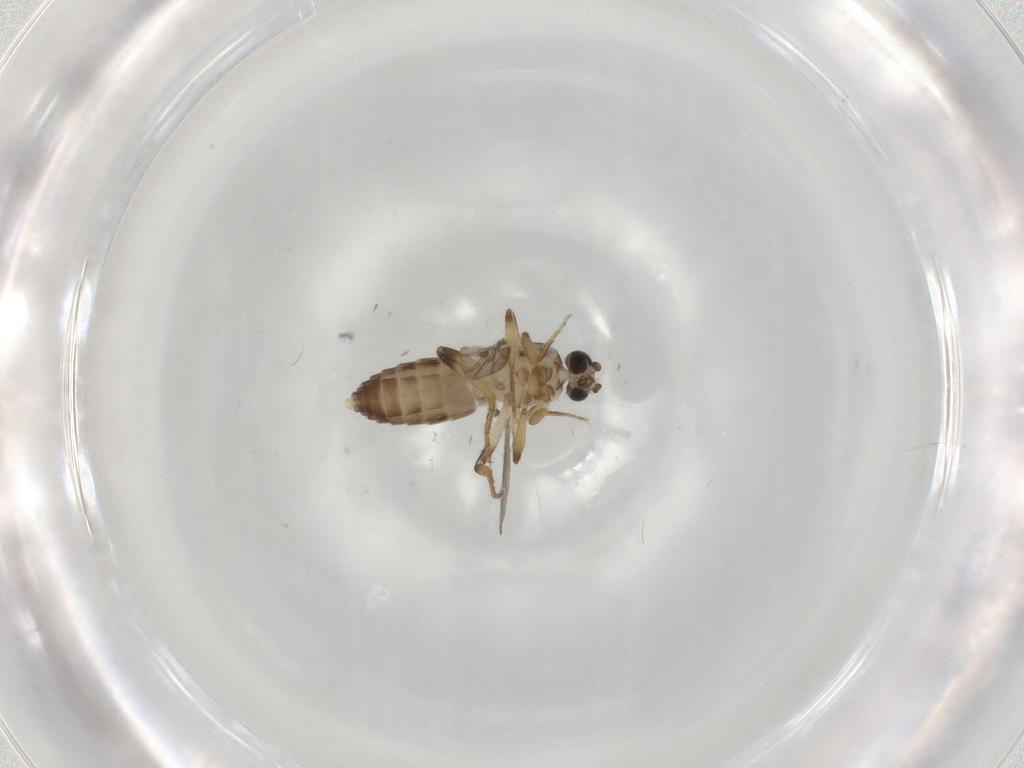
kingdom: Animalia
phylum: Arthropoda
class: Insecta
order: Diptera
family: Ceratopogonidae
